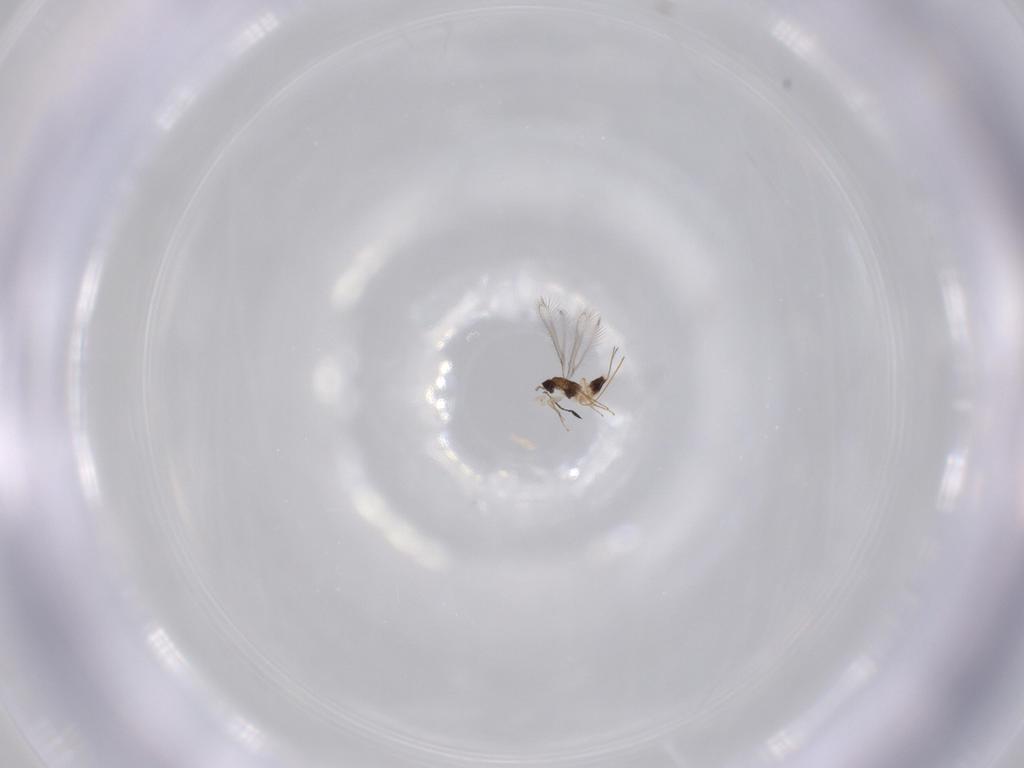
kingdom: Animalia
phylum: Arthropoda
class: Insecta
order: Hymenoptera
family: Mymaridae
